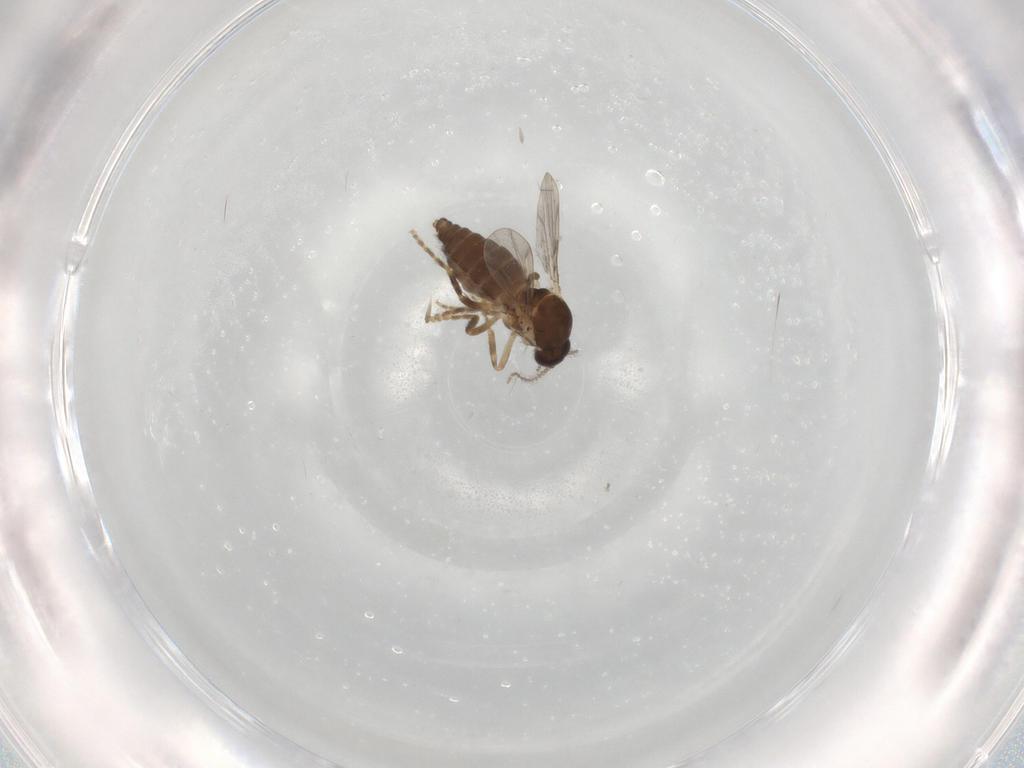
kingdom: Animalia
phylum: Arthropoda
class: Insecta
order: Diptera
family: Ceratopogonidae
